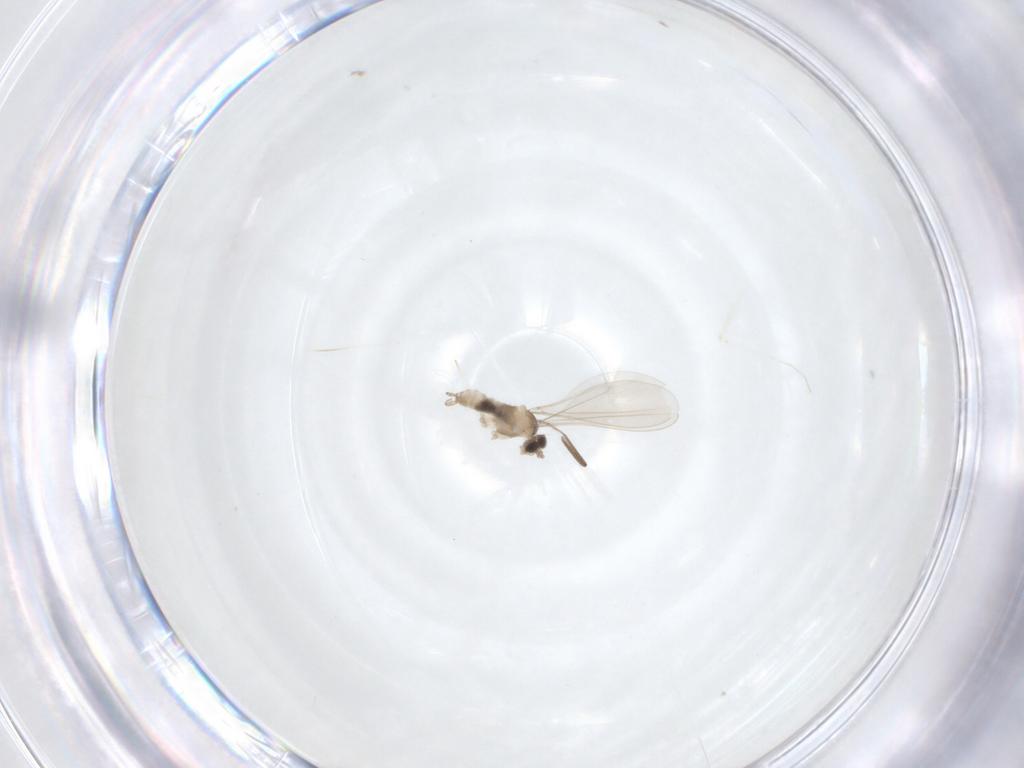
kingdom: Animalia
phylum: Arthropoda
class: Insecta
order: Diptera
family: Cecidomyiidae
